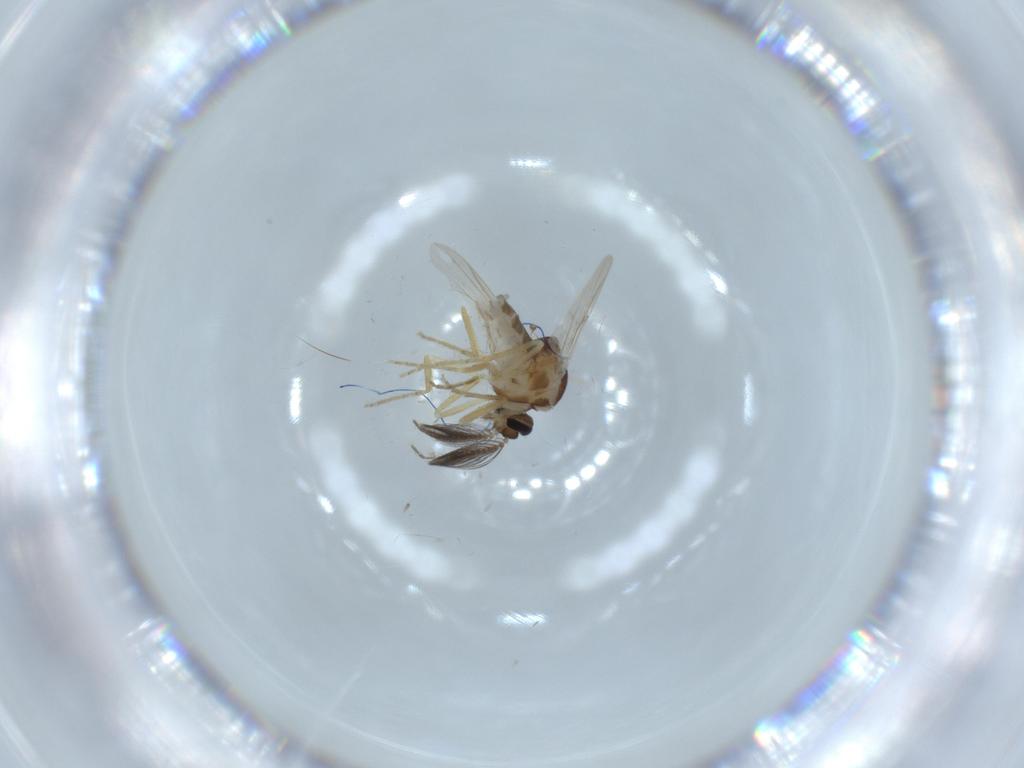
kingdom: Animalia
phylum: Arthropoda
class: Insecta
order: Diptera
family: Ceratopogonidae
